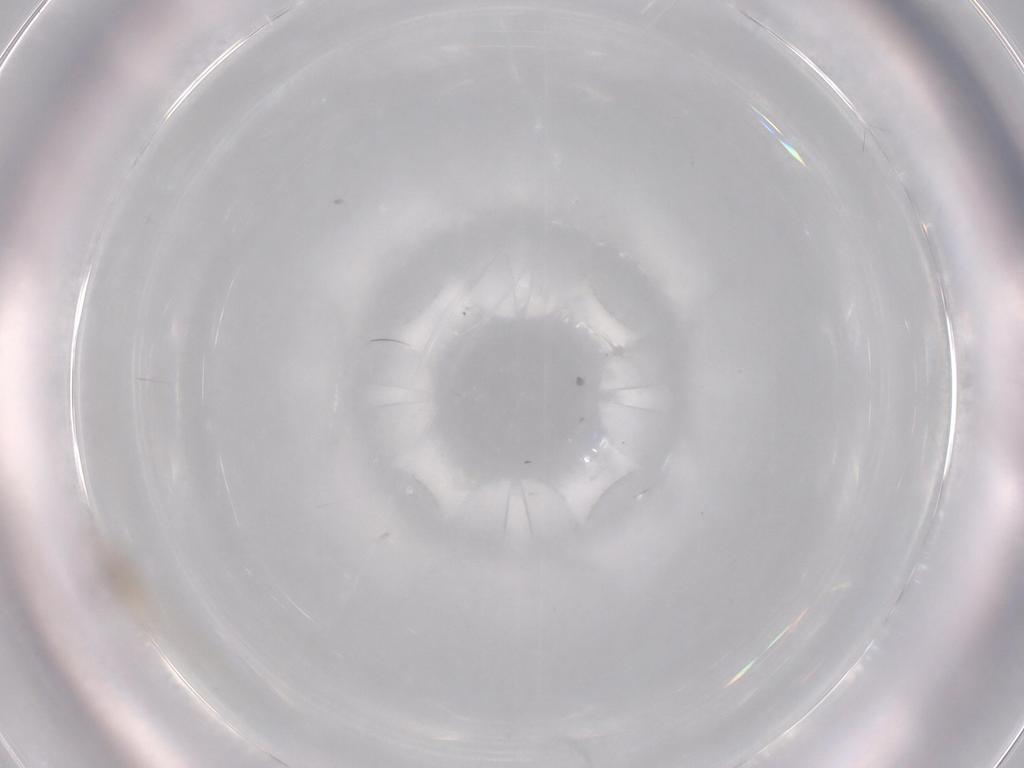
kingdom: Animalia
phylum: Arthropoda
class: Insecta
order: Diptera
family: Cecidomyiidae
